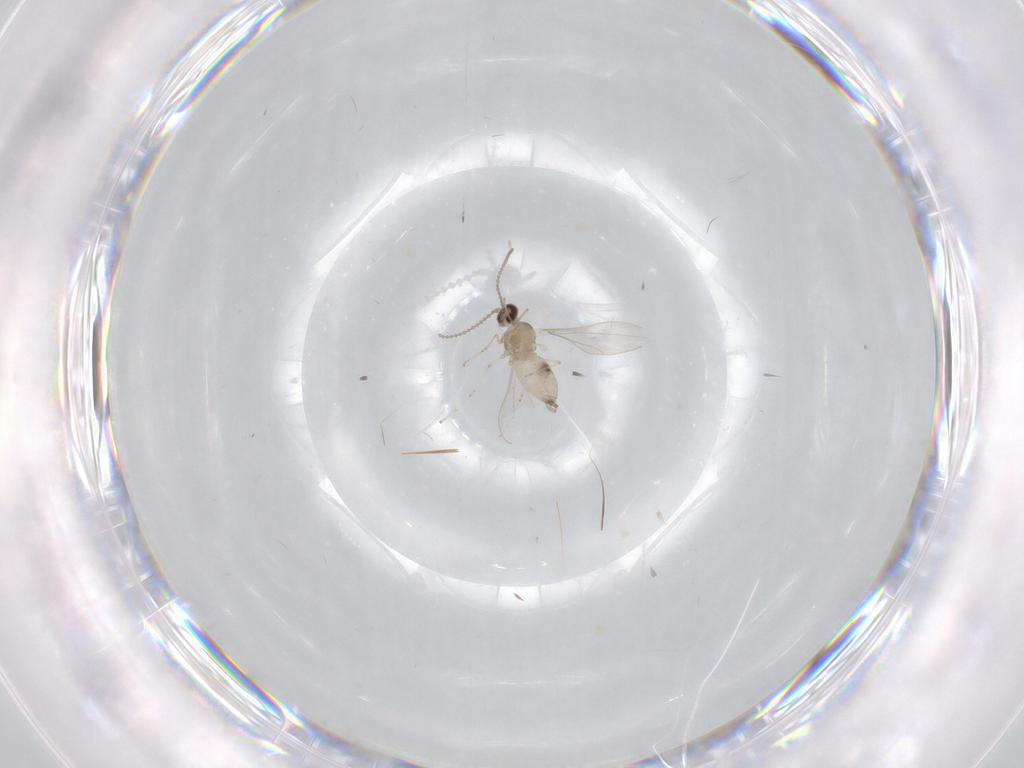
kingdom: Animalia
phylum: Arthropoda
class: Insecta
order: Diptera
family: Cecidomyiidae
